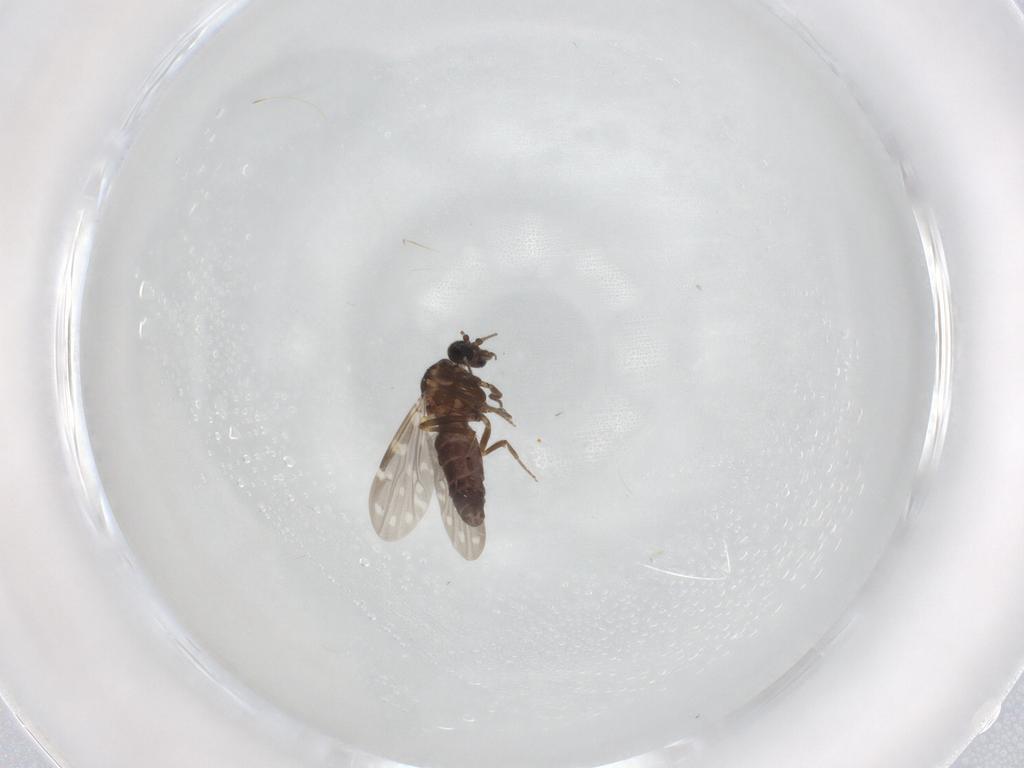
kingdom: Animalia
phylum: Arthropoda
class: Insecta
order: Diptera
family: Ceratopogonidae
